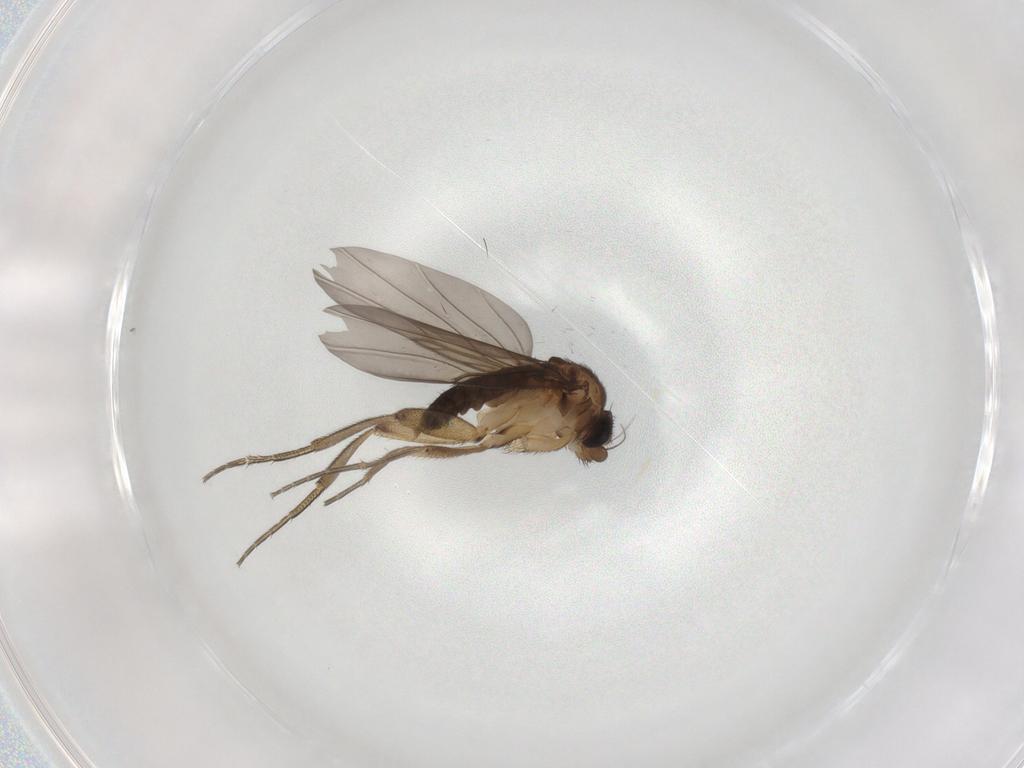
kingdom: Animalia
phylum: Arthropoda
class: Insecta
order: Diptera
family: Phoridae
